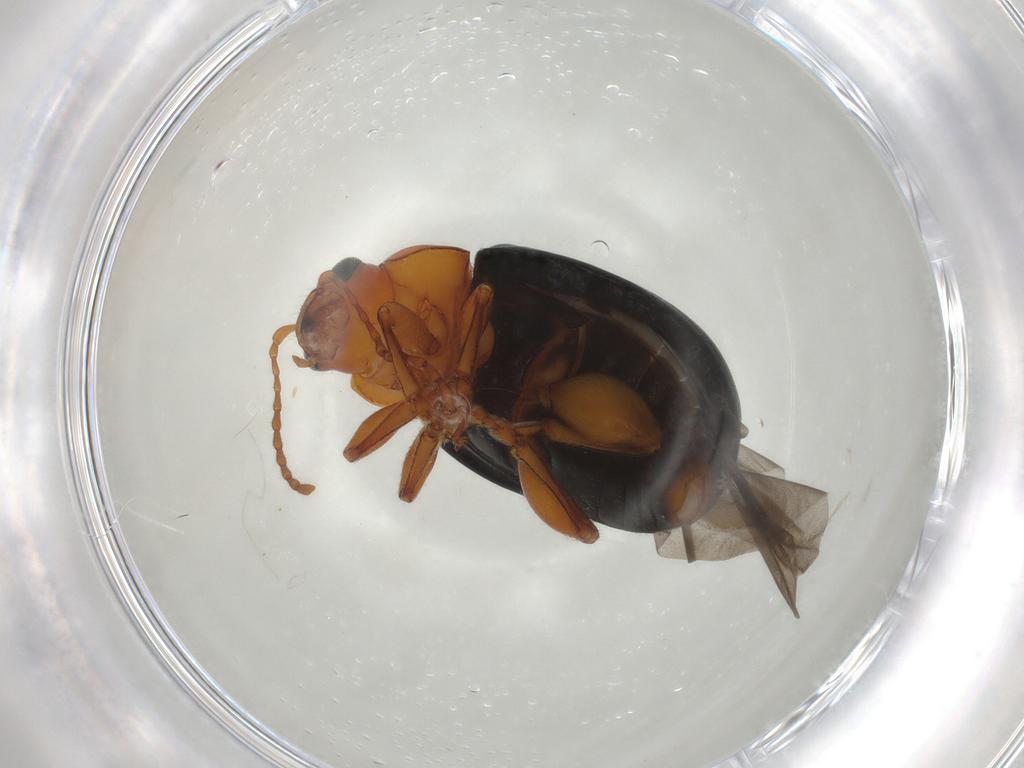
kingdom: Animalia
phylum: Arthropoda
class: Insecta
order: Coleoptera
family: Chrysomelidae
